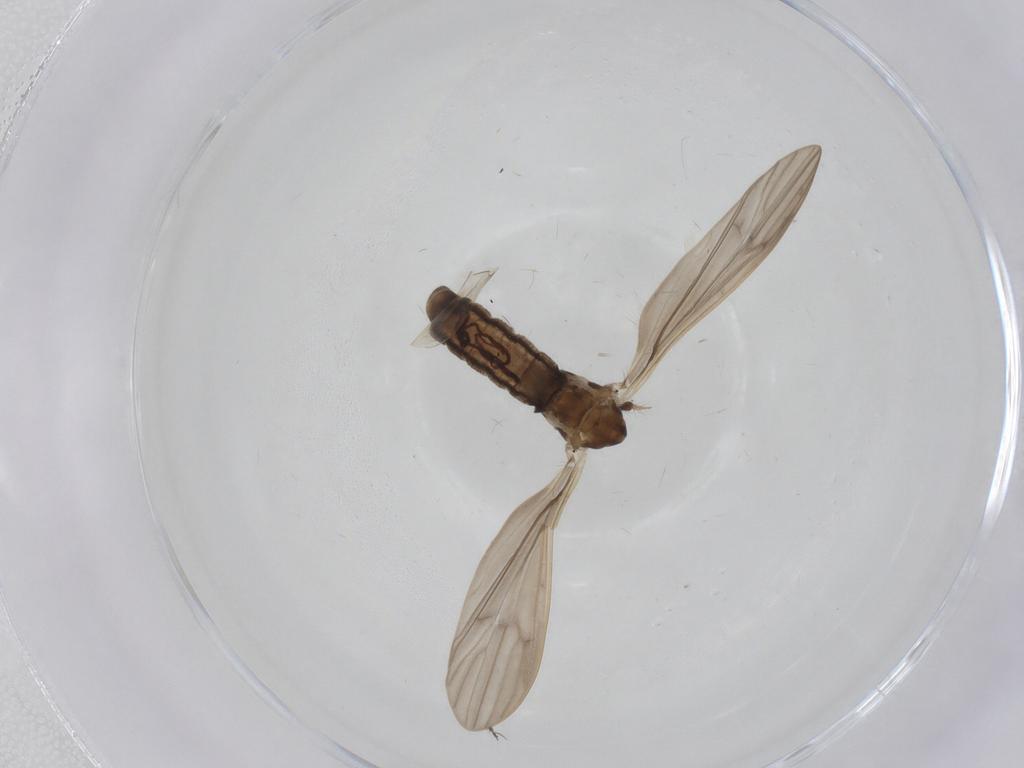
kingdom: Animalia
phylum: Arthropoda
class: Insecta
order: Diptera
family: Limoniidae
